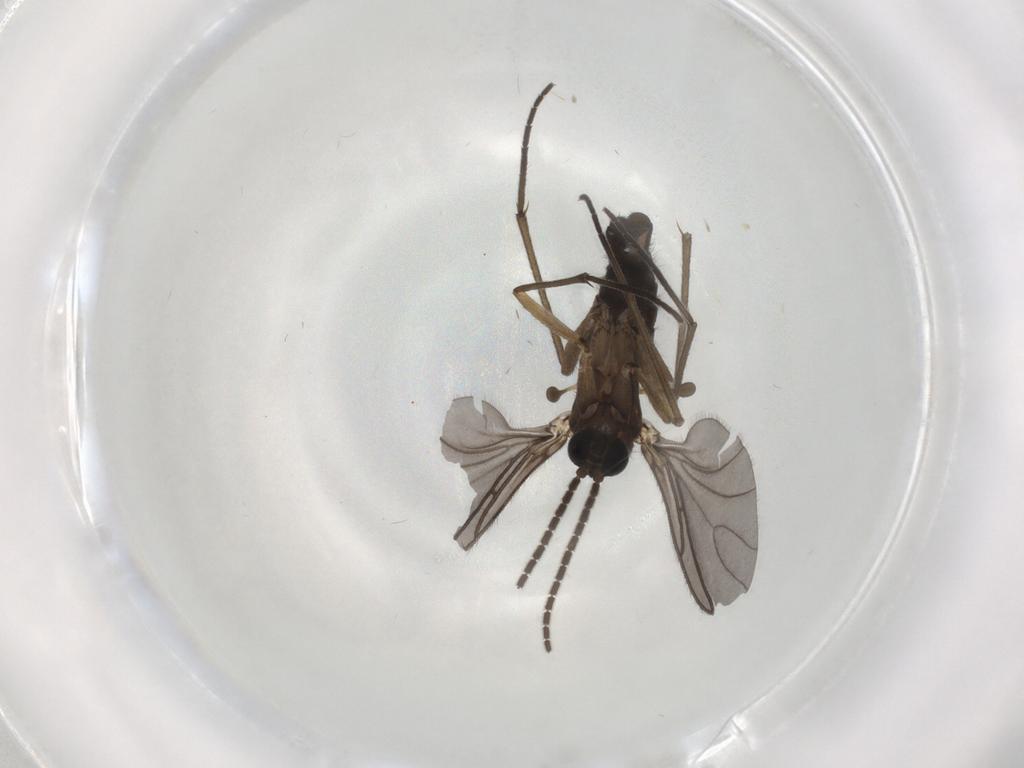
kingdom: Animalia
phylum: Arthropoda
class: Insecta
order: Diptera
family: Sciaridae
